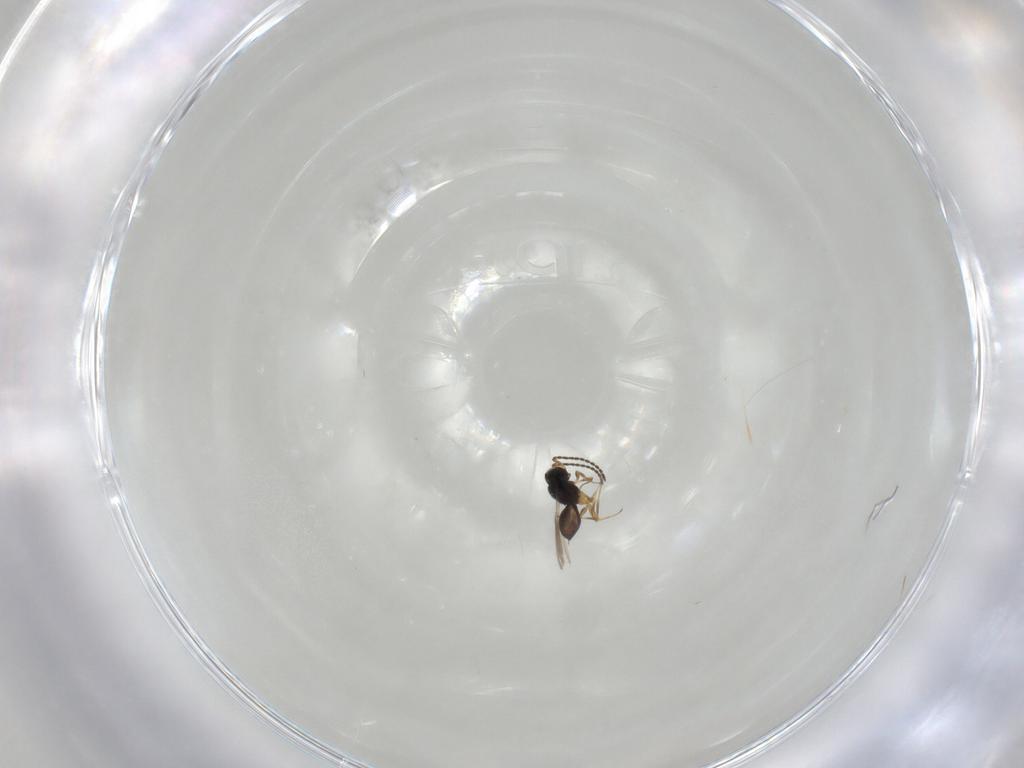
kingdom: Animalia
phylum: Arthropoda
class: Insecta
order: Hymenoptera
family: Scelionidae
